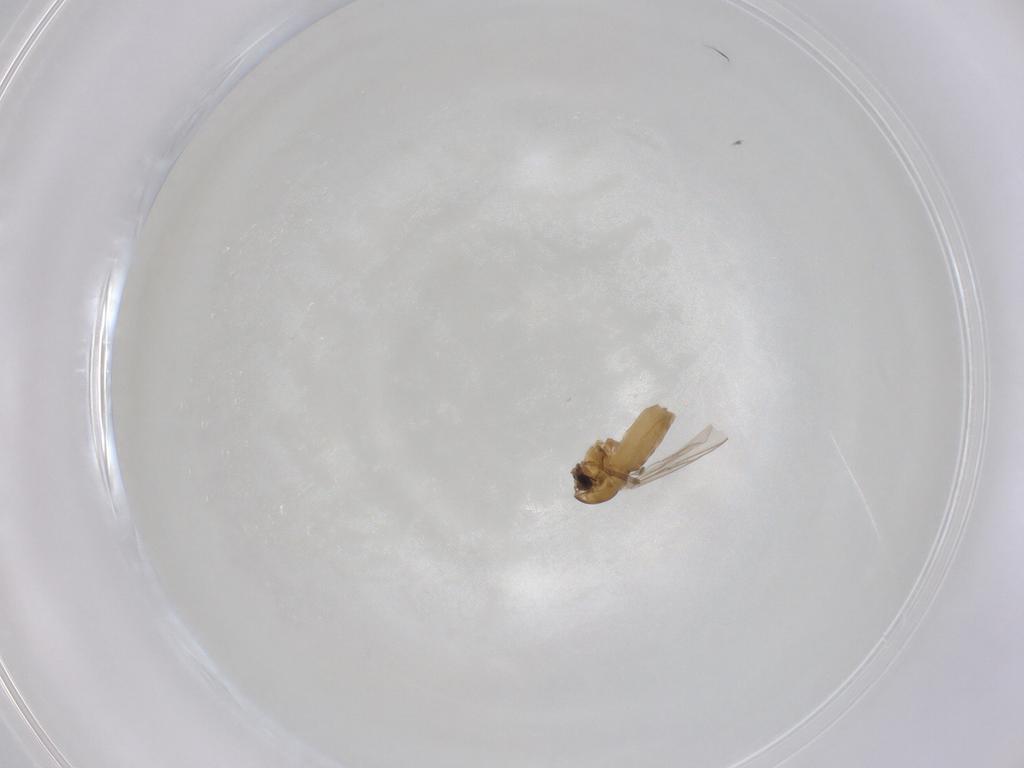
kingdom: Animalia
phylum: Arthropoda
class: Insecta
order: Diptera
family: Chironomidae
